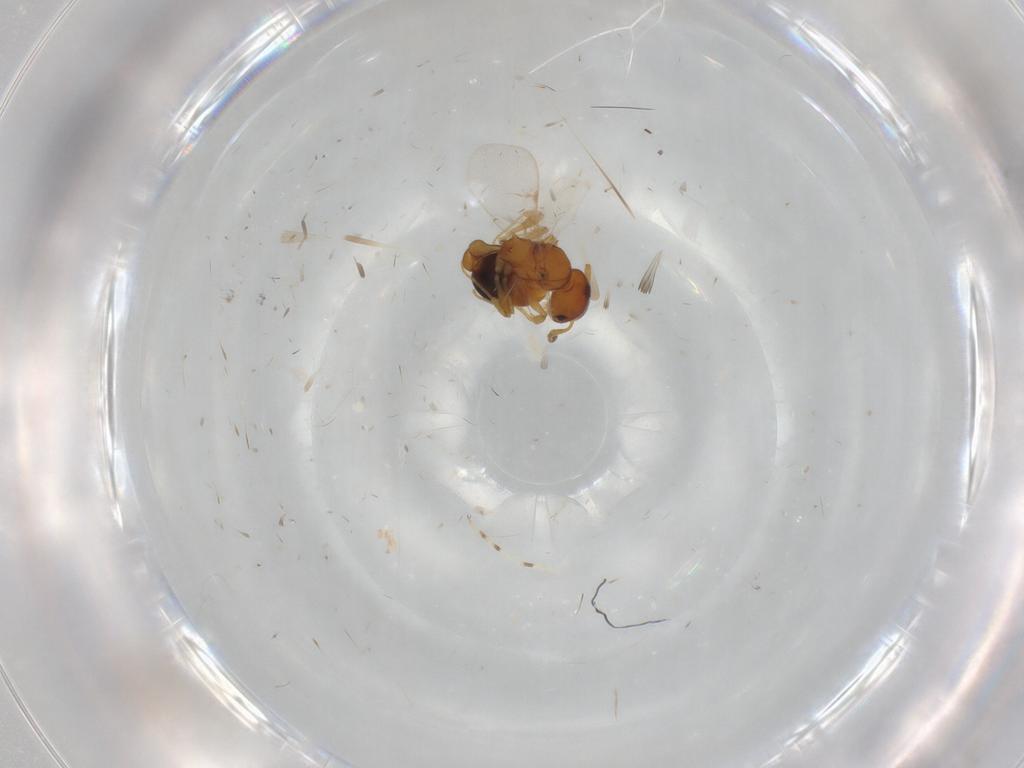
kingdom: Animalia
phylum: Arthropoda
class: Insecta
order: Hymenoptera
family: Formicidae
